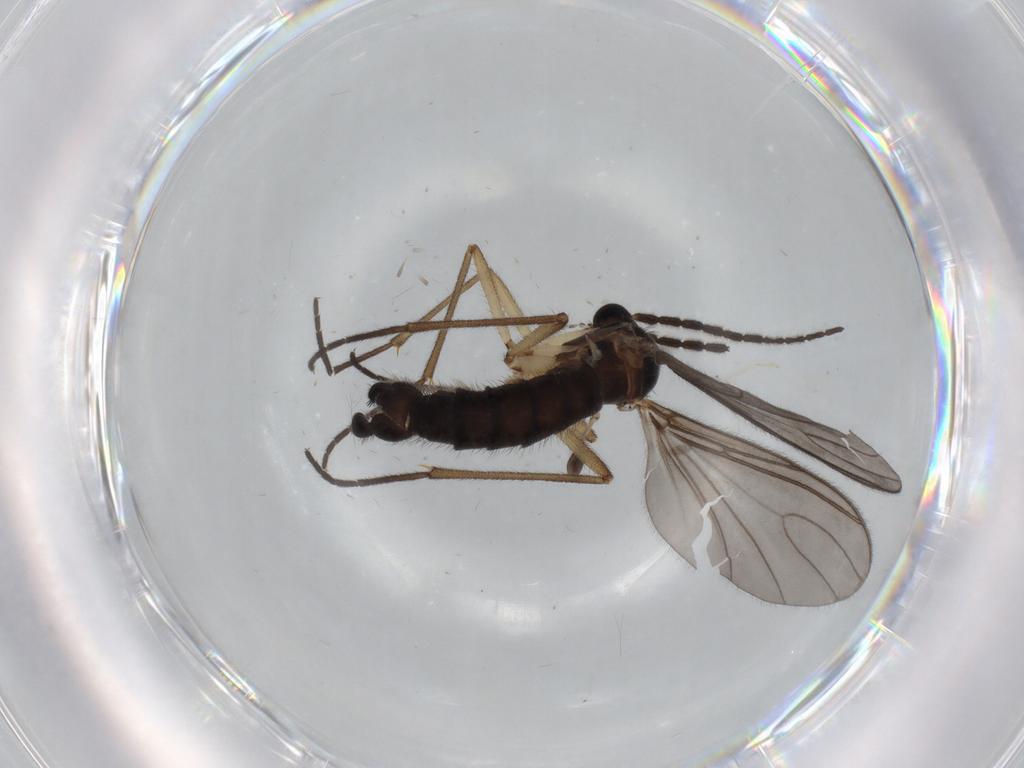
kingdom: Animalia
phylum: Arthropoda
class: Insecta
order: Diptera
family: Sciaridae
